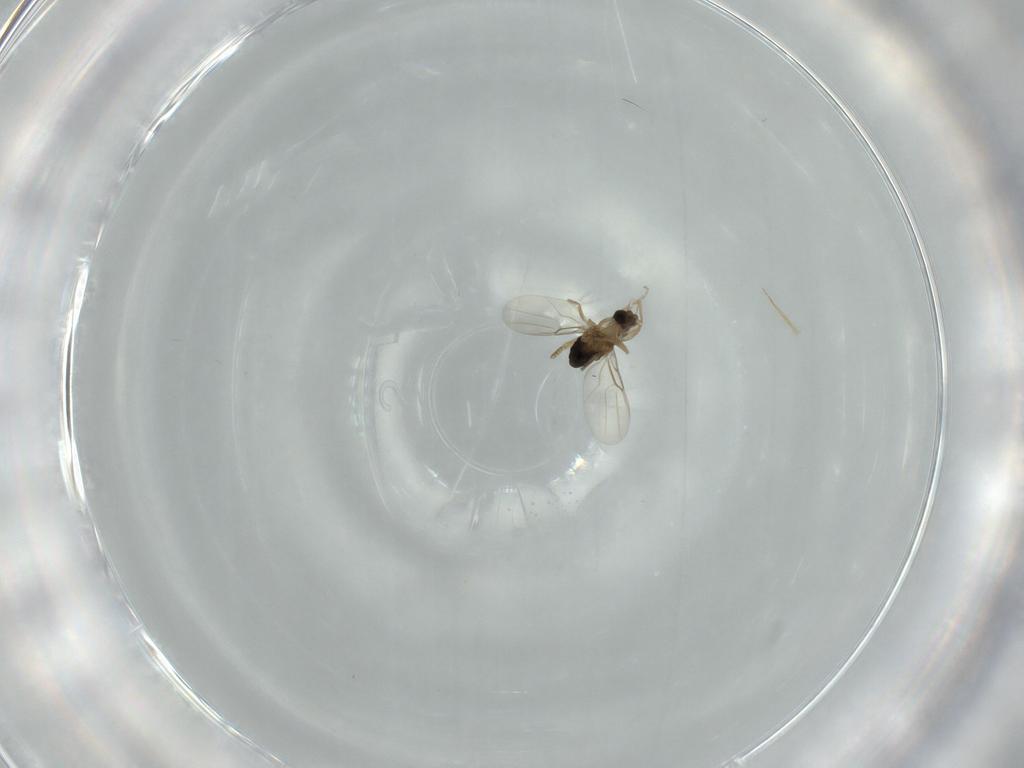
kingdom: Animalia
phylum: Arthropoda
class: Insecta
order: Diptera
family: Phoridae
